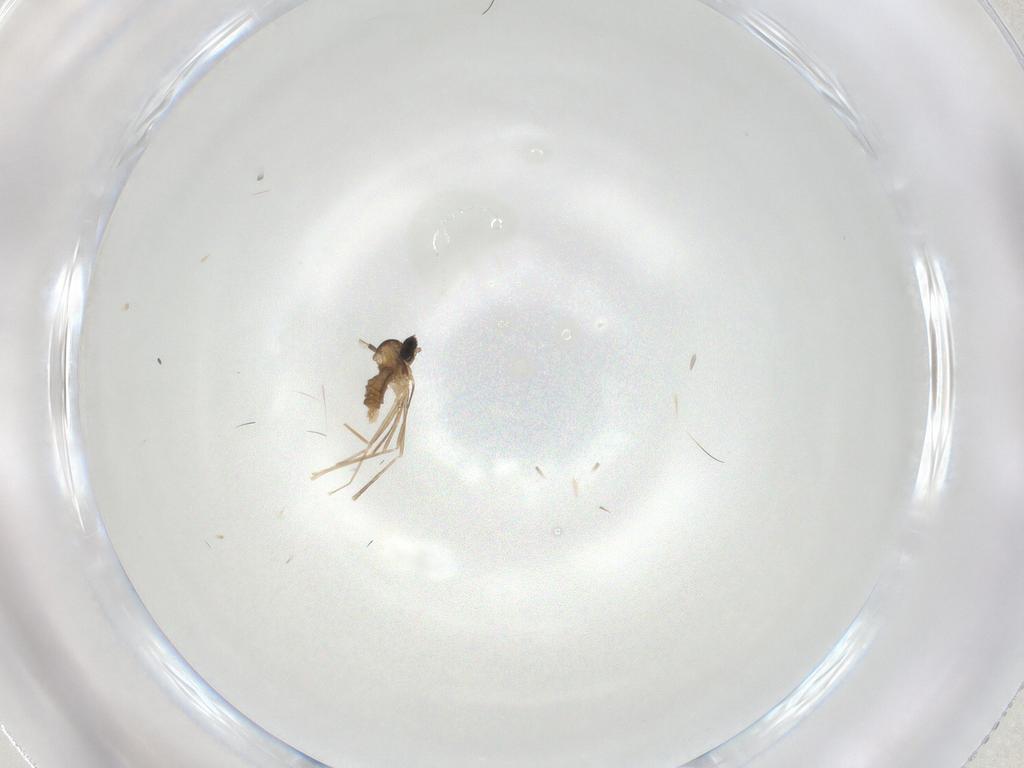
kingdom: Animalia
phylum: Arthropoda
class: Insecta
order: Diptera
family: Cecidomyiidae
